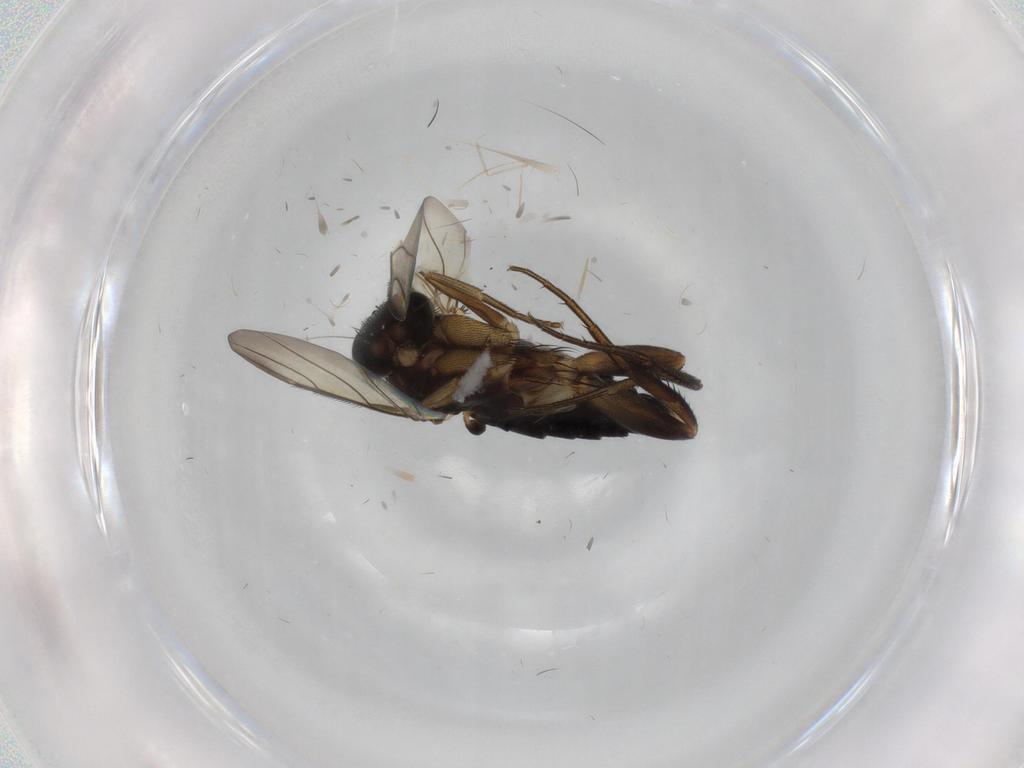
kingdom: Animalia
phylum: Arthropoda
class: Insecta
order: Diptera
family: Phoridae
